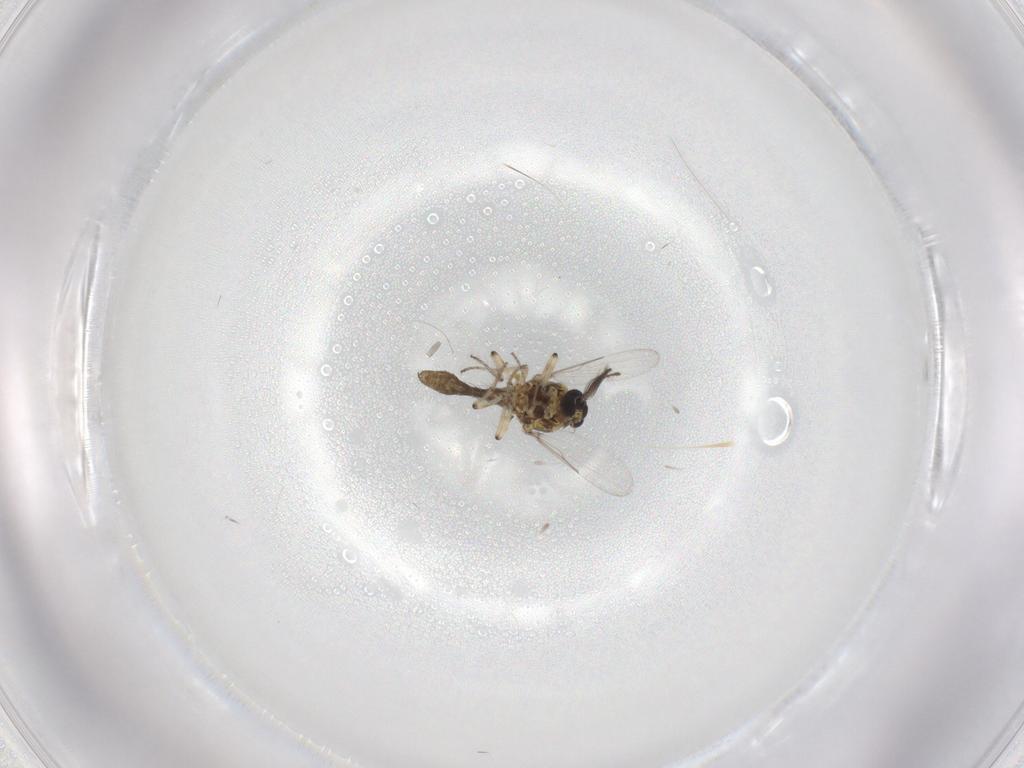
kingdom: Animalia
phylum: Arthropoda
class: Insecta
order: Diptera
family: Ceratopogonidae
